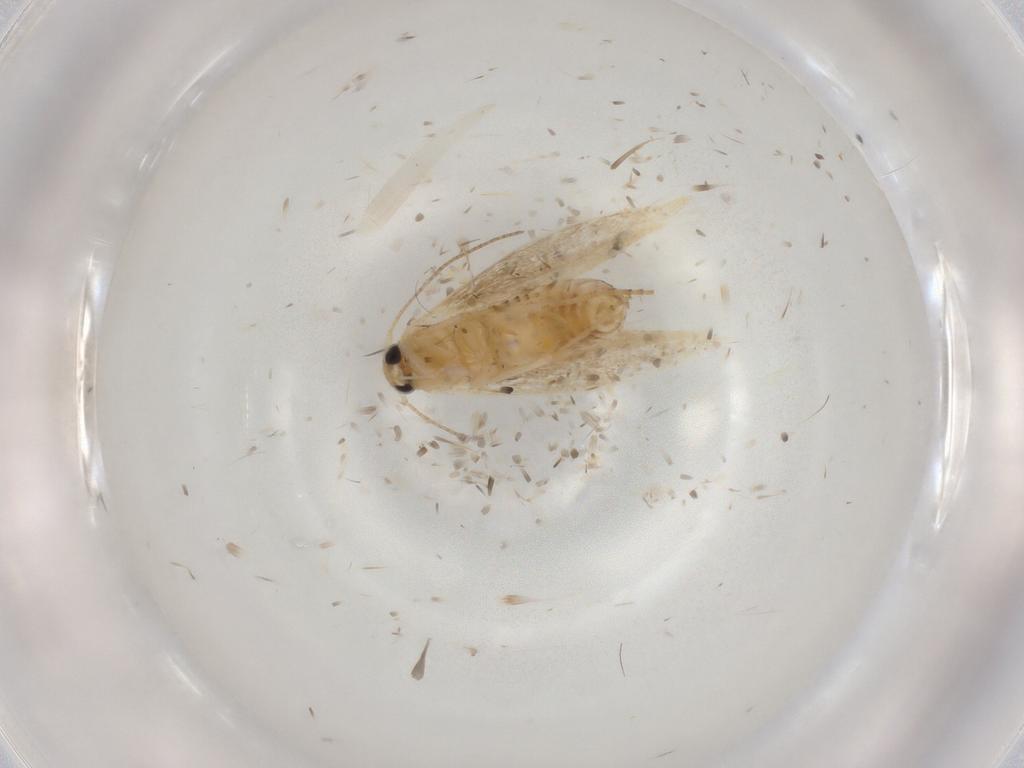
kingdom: Animalia
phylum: Arthropoda
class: Insecta
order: Lepidoptera
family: Bucculatricidae
